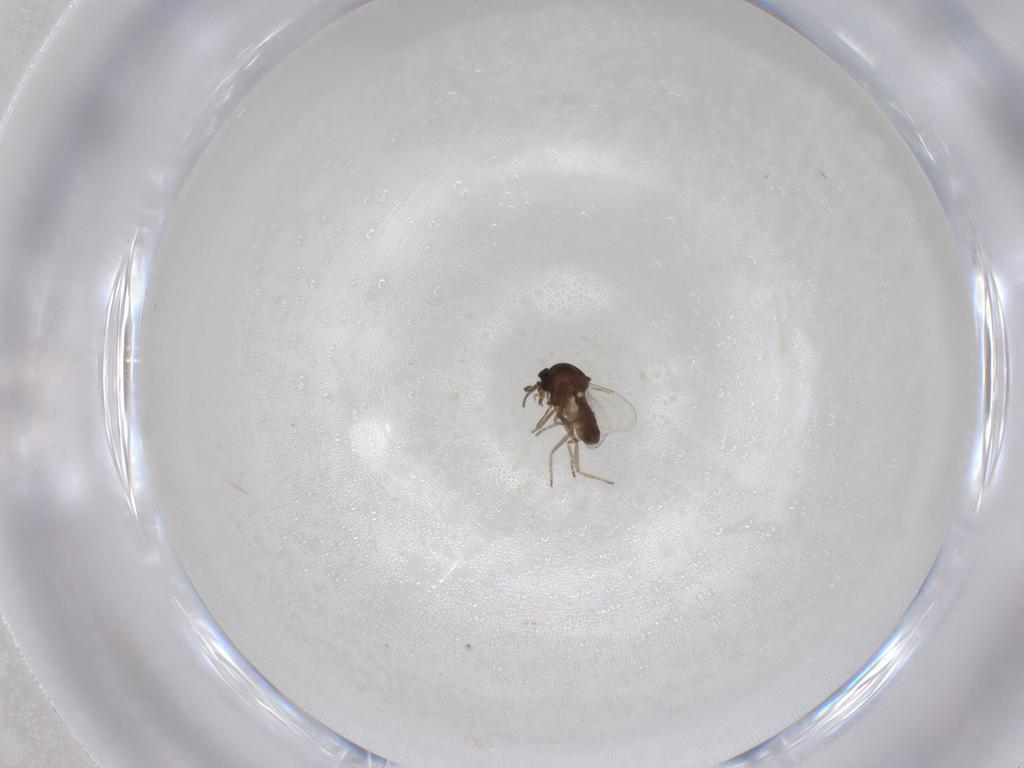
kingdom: Animalia
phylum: Arthropoda
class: Insecta
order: Diptera
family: Ceratopogonidae
